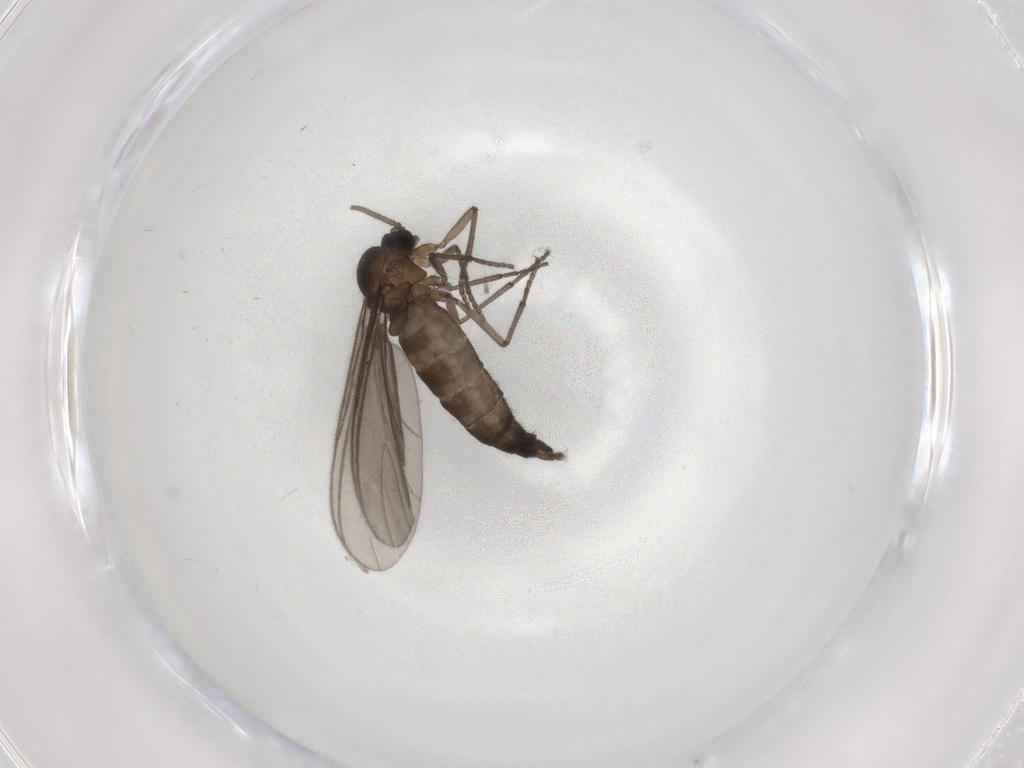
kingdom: Animalia
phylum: Arthropoda
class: Insecta
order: Diptera
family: Sciaridae
